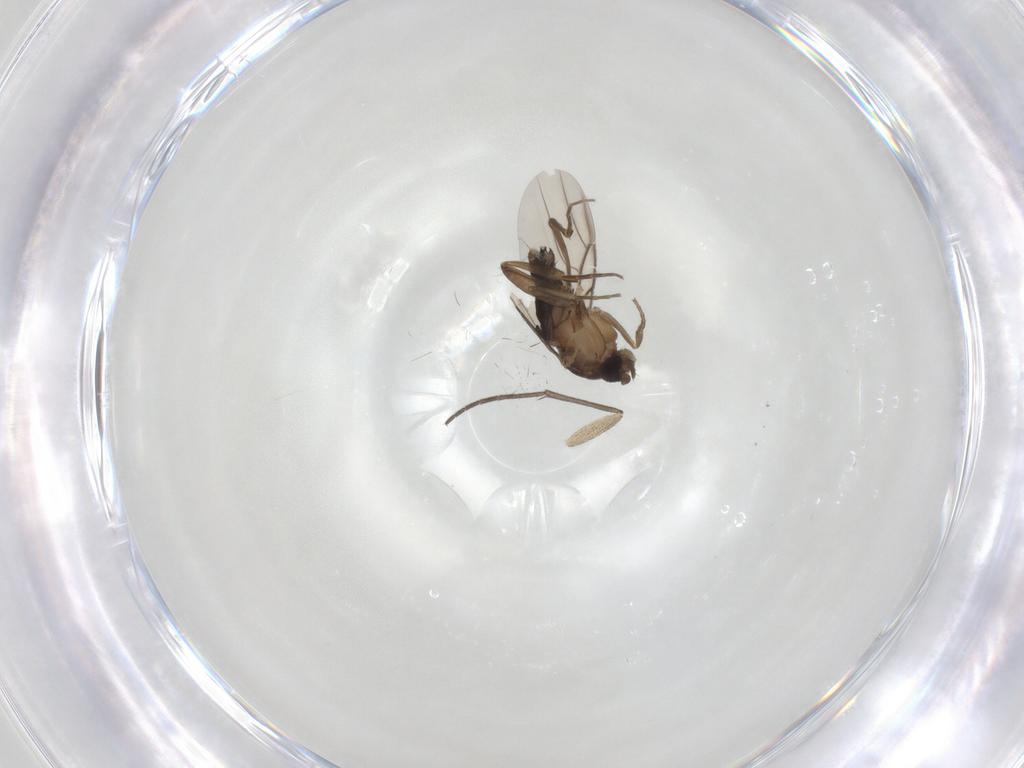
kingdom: Animalia
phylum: Arthropoda
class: Insecta
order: Diptera
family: Phoridae
